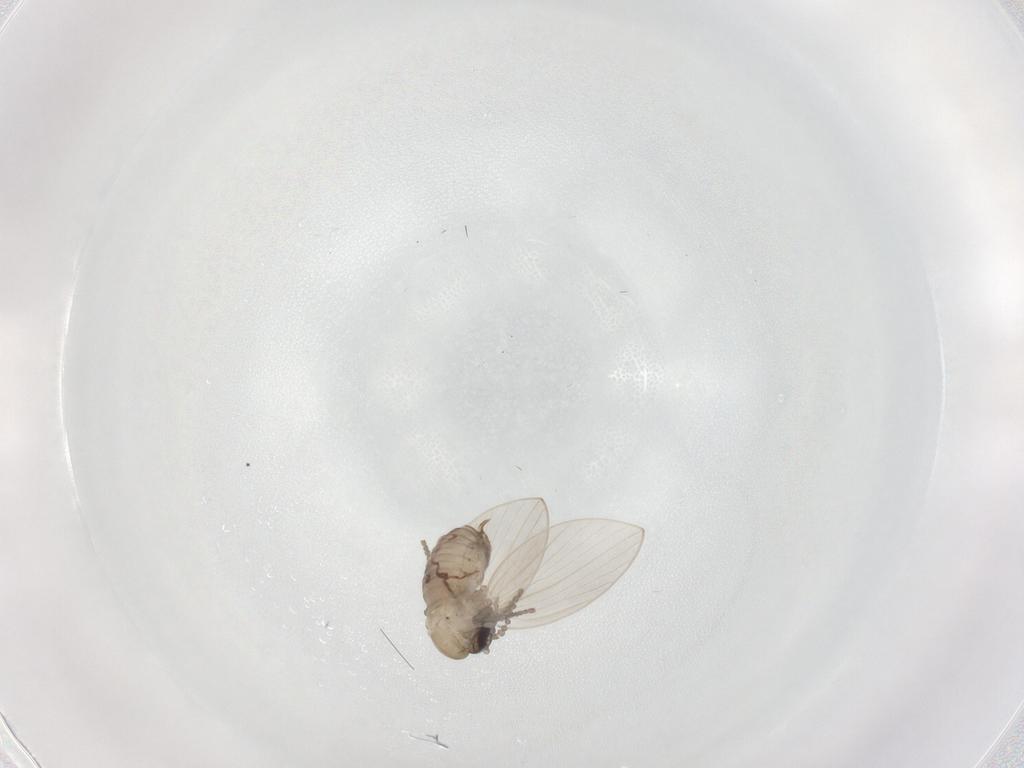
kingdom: Animalia
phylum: Arthropoda
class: Insecta
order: Diptera
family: Psychodidae
